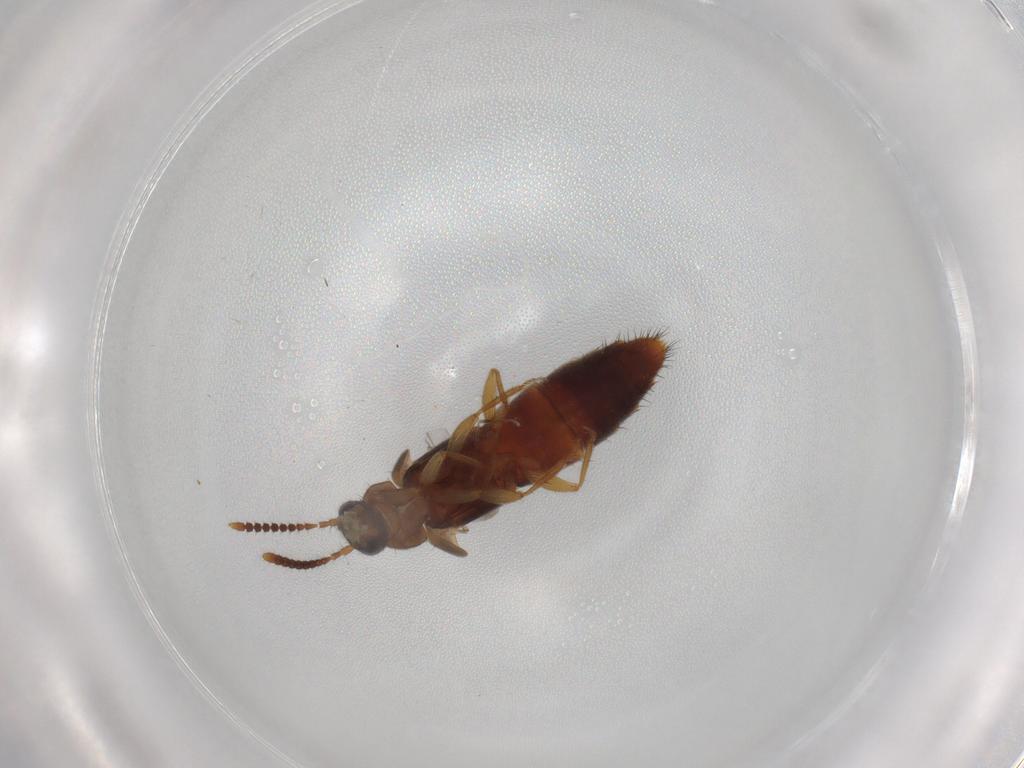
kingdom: Animalia
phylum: Arthropoda
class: Insecta
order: Coleoptera
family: Staphylinidae
